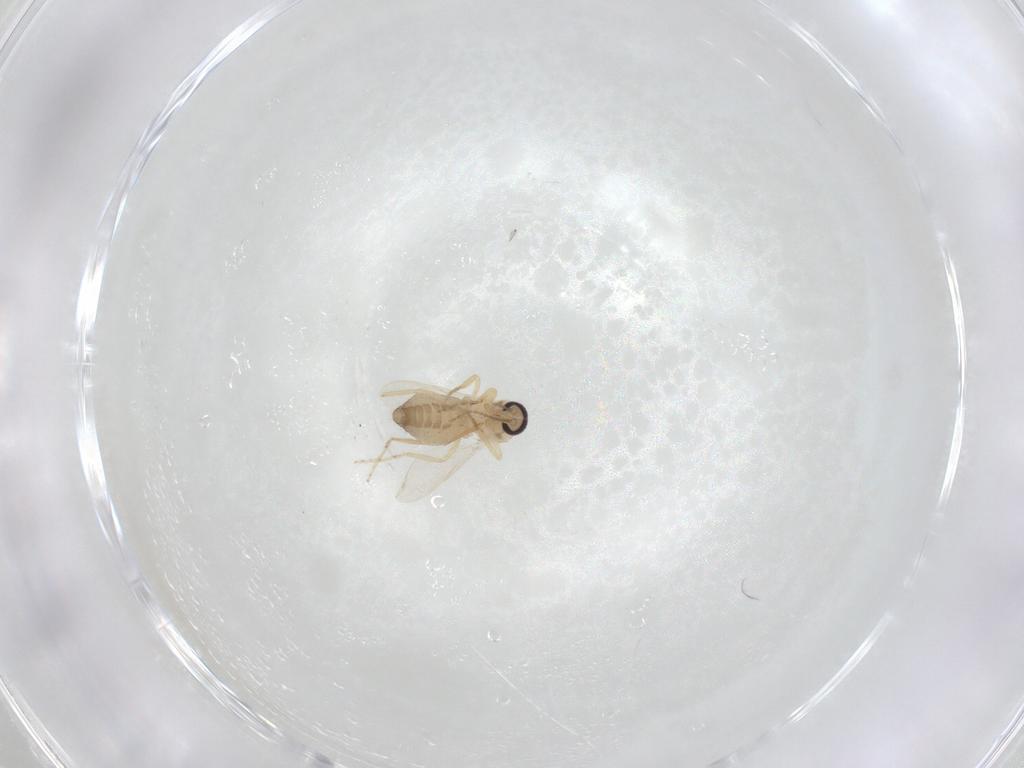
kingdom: Animalia
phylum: Arthropoda
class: Insecta
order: Diptera
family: Ceratopogonidae
